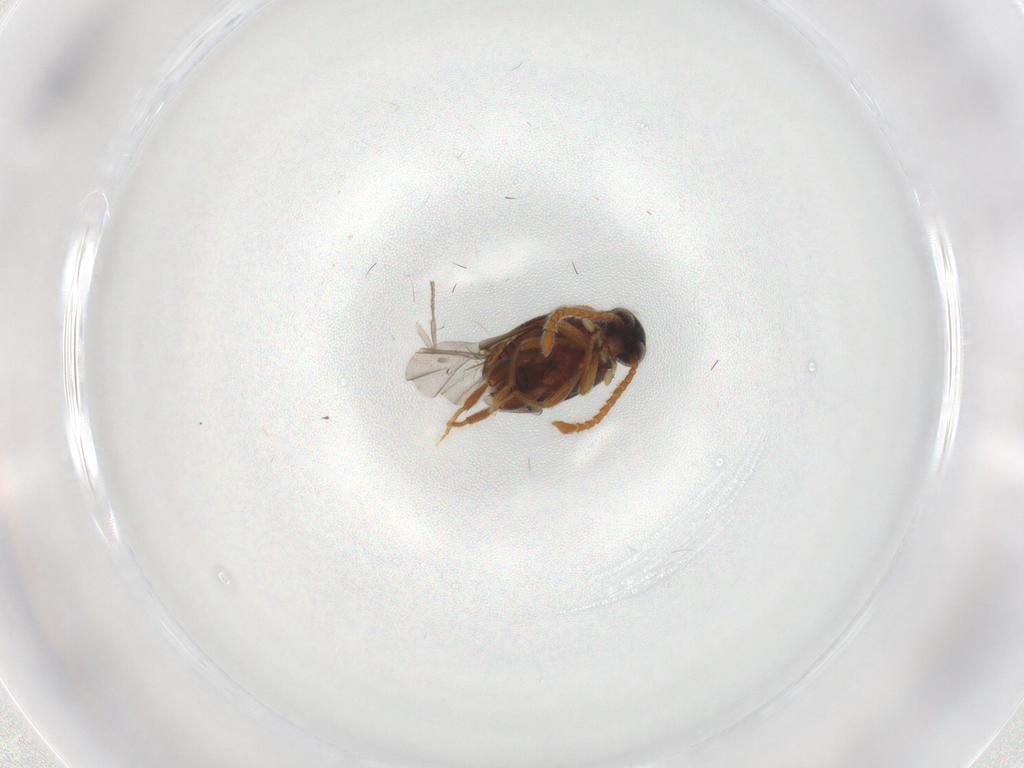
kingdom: Animalia
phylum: Arthropoda
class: Insecta
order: Coleoptera
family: Aderidae
